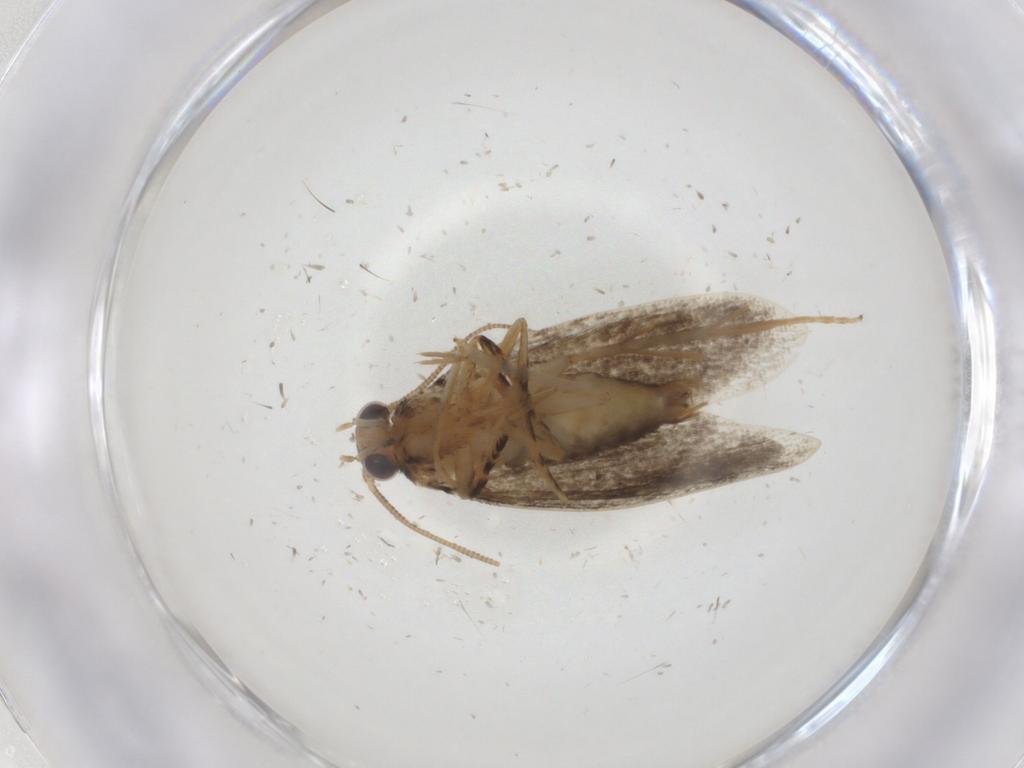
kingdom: Animalia
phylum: Arthropoda
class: Insecta
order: Lepidoptera
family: Tineidae
